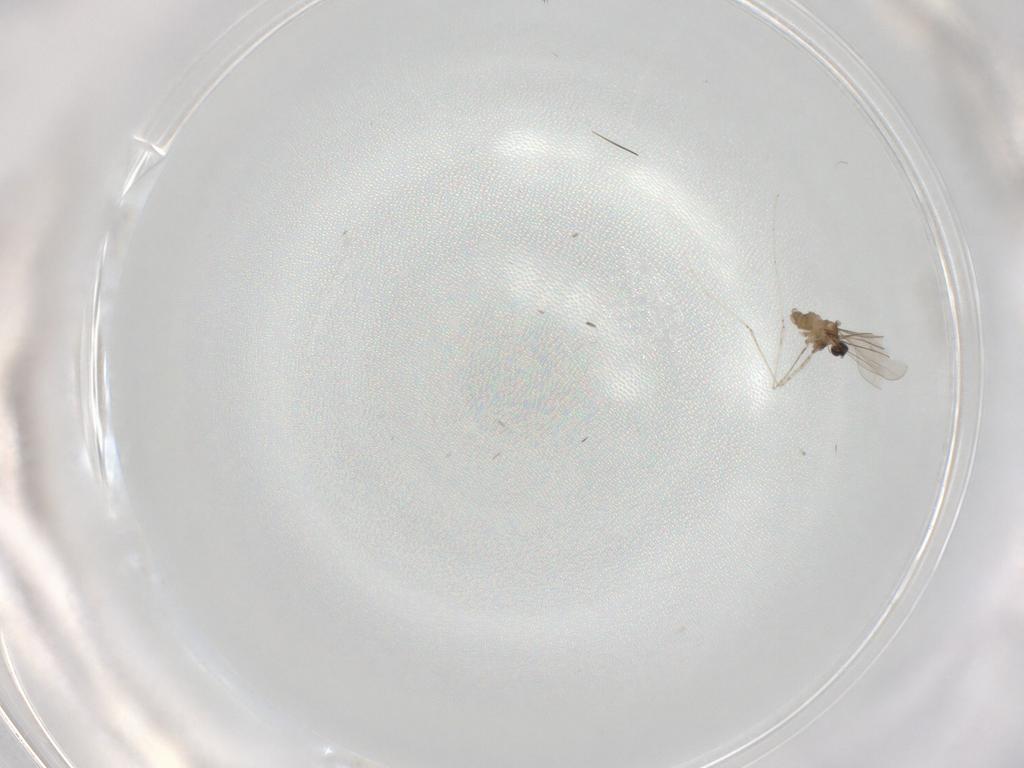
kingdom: Animalia
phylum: Arthropoda
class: Insecta
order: Diptera
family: Cecidomyiidae
